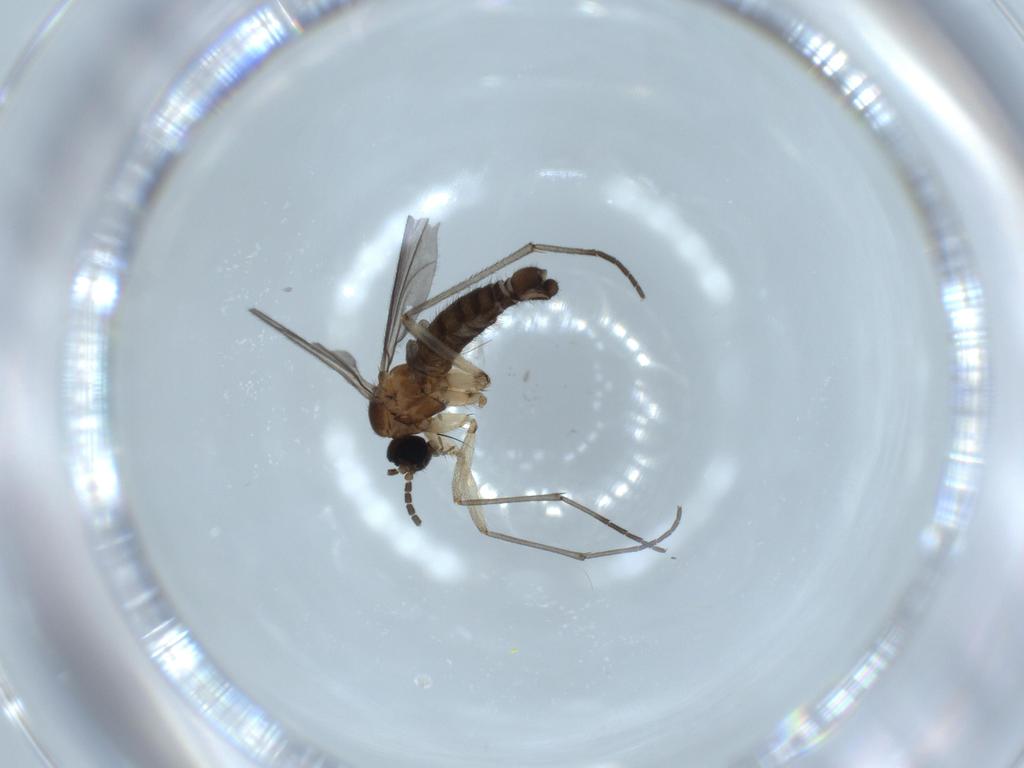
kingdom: Animalia
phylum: Arthropoda
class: Insecta
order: Diptera
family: Sciaridae
